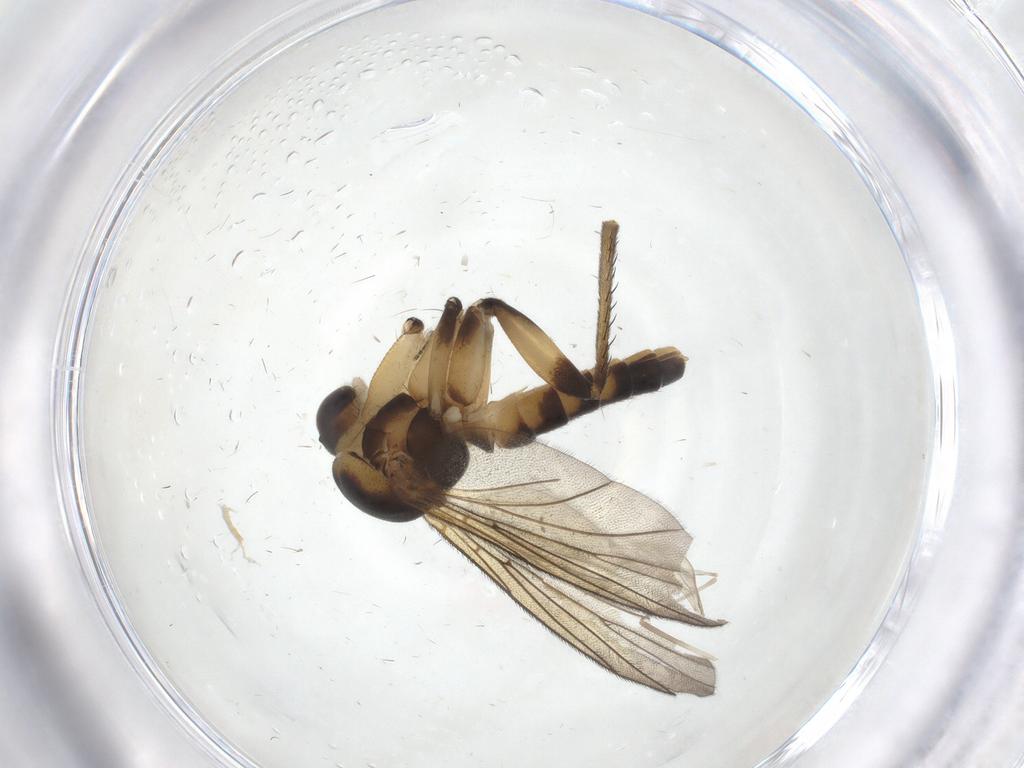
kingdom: Animalia
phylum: Arthropoda
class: Insecta
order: Diptera
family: Mycetophilidae
